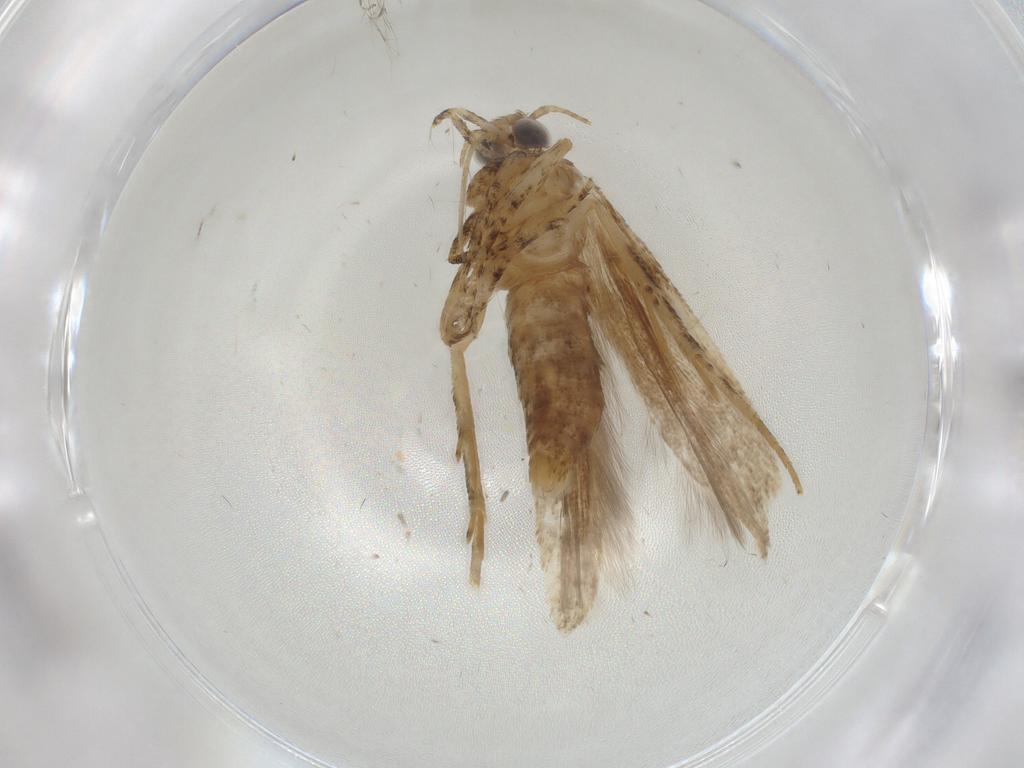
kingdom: Animalia
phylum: Arthropoda
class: Insecta
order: Lepidoptera
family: Gelechiidae
